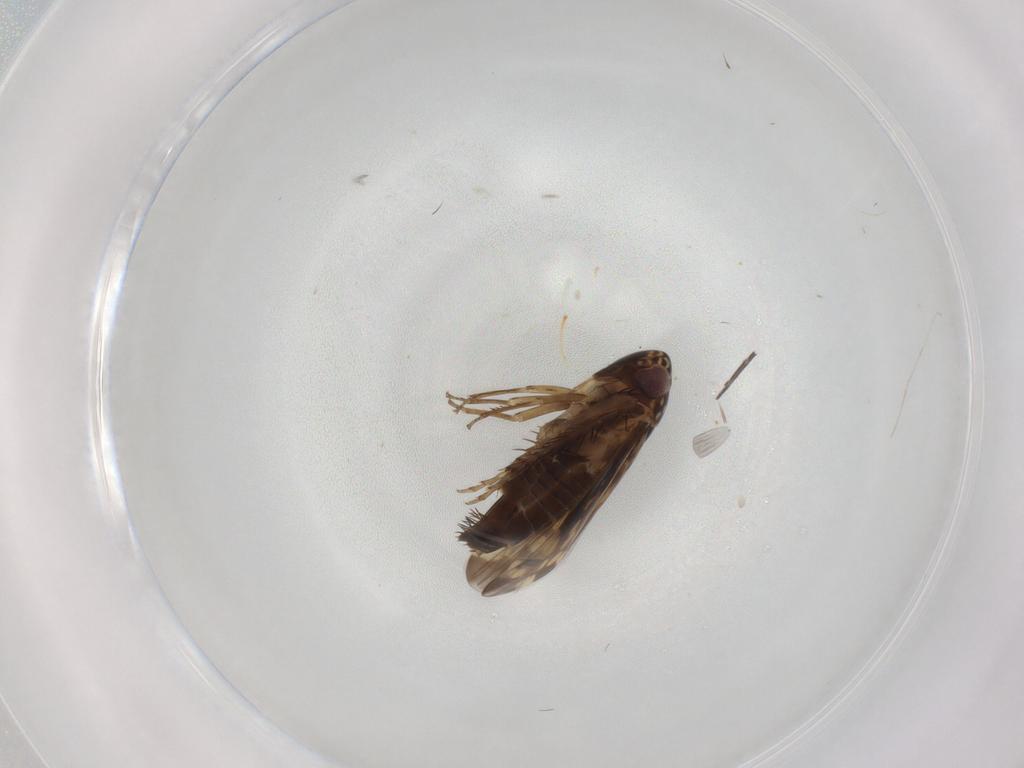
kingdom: Animalia
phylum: Arthropoda
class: Insecta
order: Hemiptera
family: Cicadellidae
